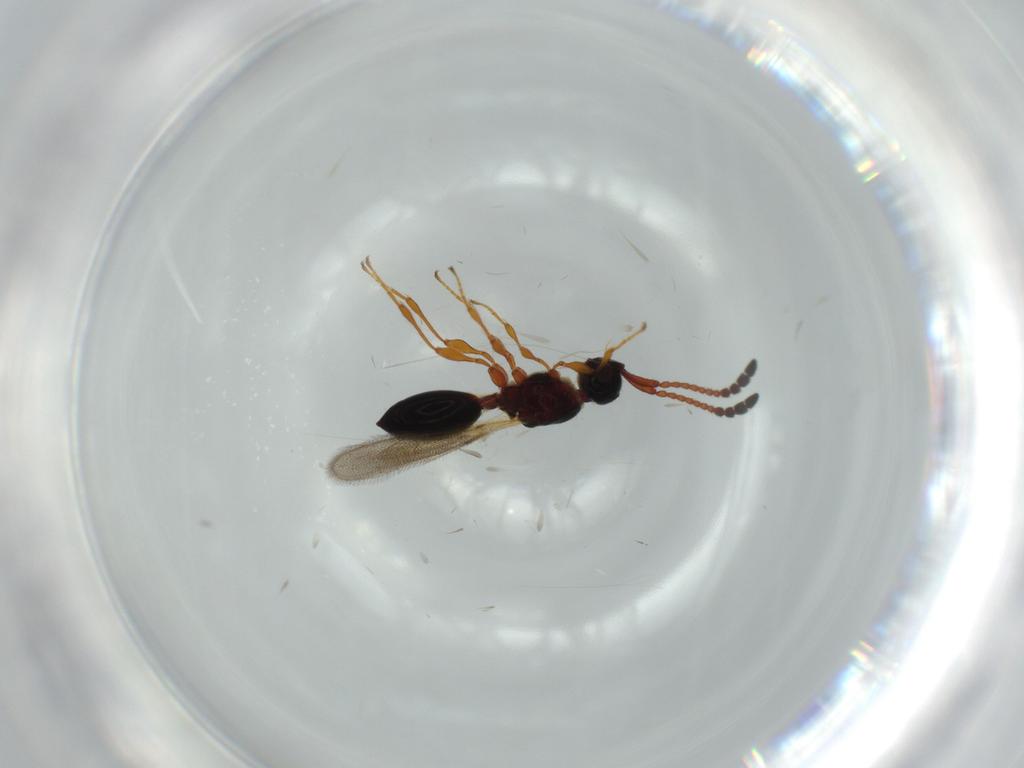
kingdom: Animalia
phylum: Arthropoda
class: Insecta
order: Hymenoptera
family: Diapriidae
